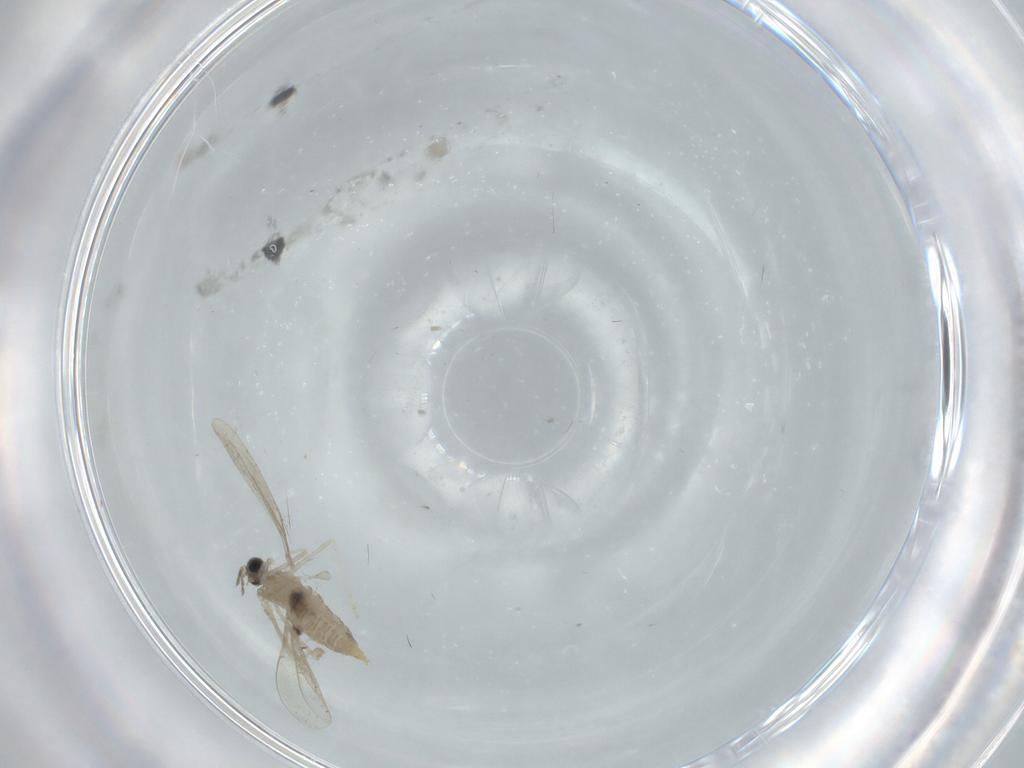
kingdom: Animalia
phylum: Arthropoda
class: Insecta
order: Diptera
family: Cecidomyiidae
